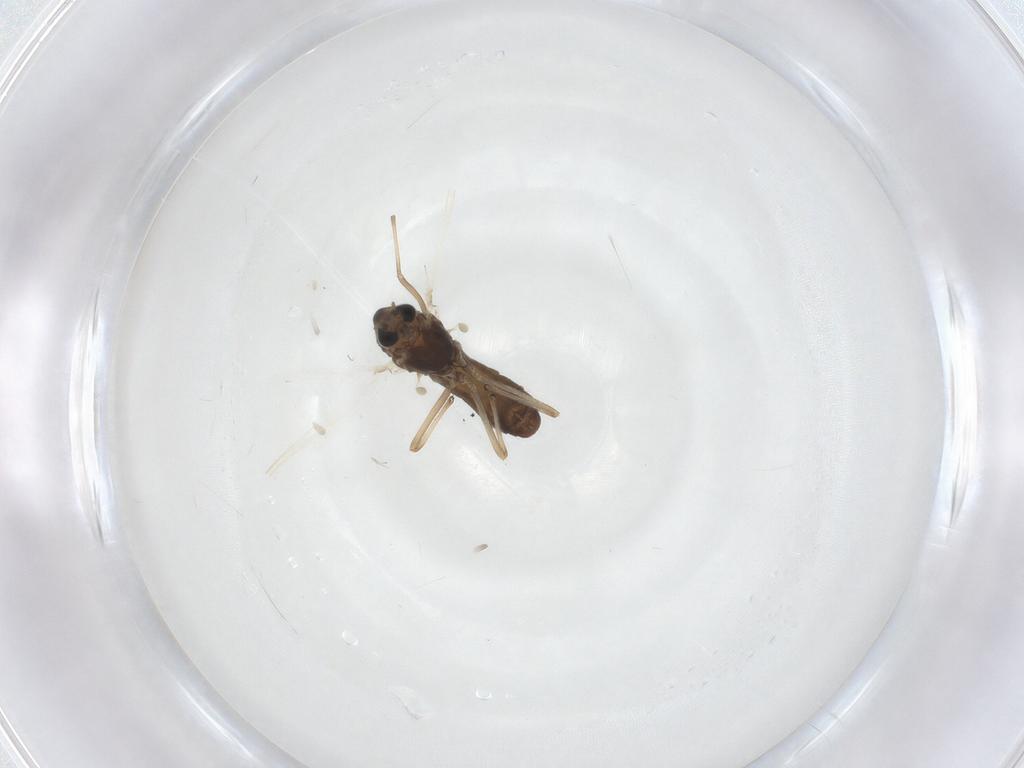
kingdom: Animalia
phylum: Arthropoda
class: Insecta
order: Diptera
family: Chironomidae
